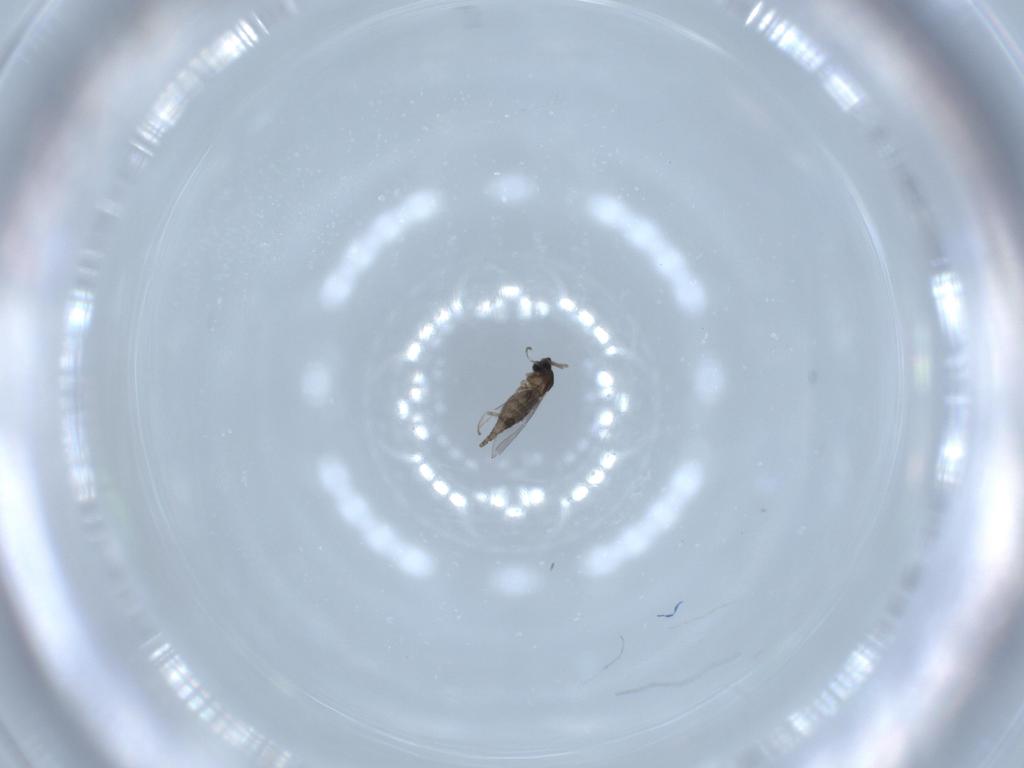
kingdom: Animalia
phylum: Arthropoda
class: Insecta
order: Diptera
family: Cecidomyiidae
